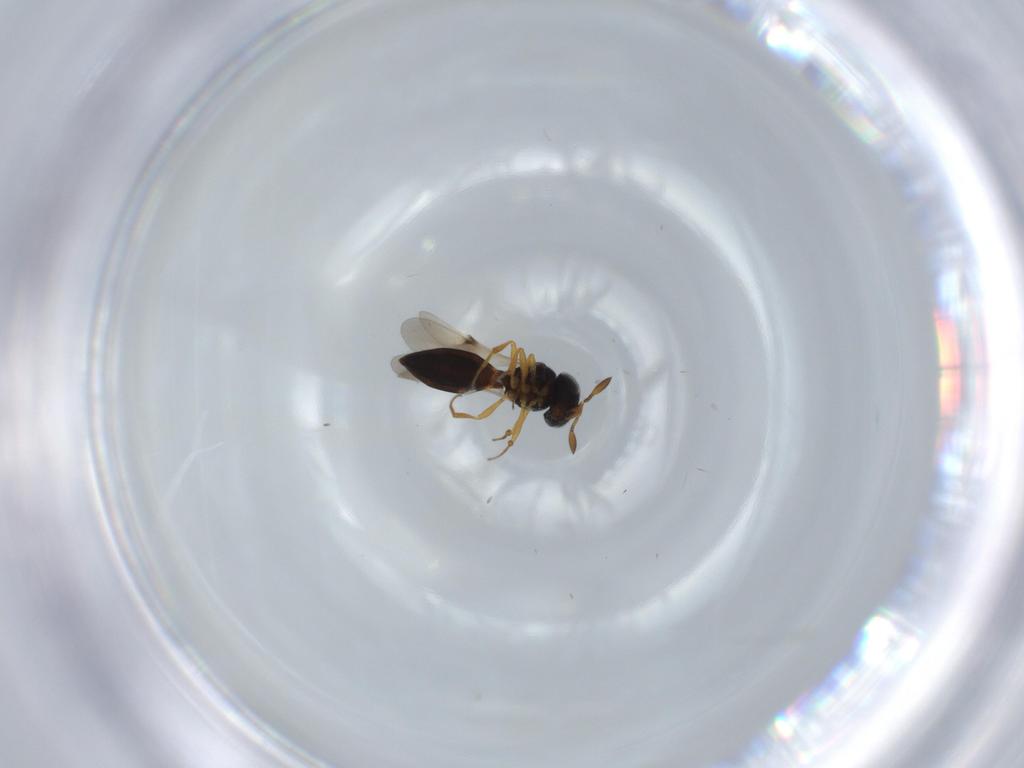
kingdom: Animalia
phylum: Arthropoda
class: Insecta
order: Hymenoptera
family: Scelionidae
